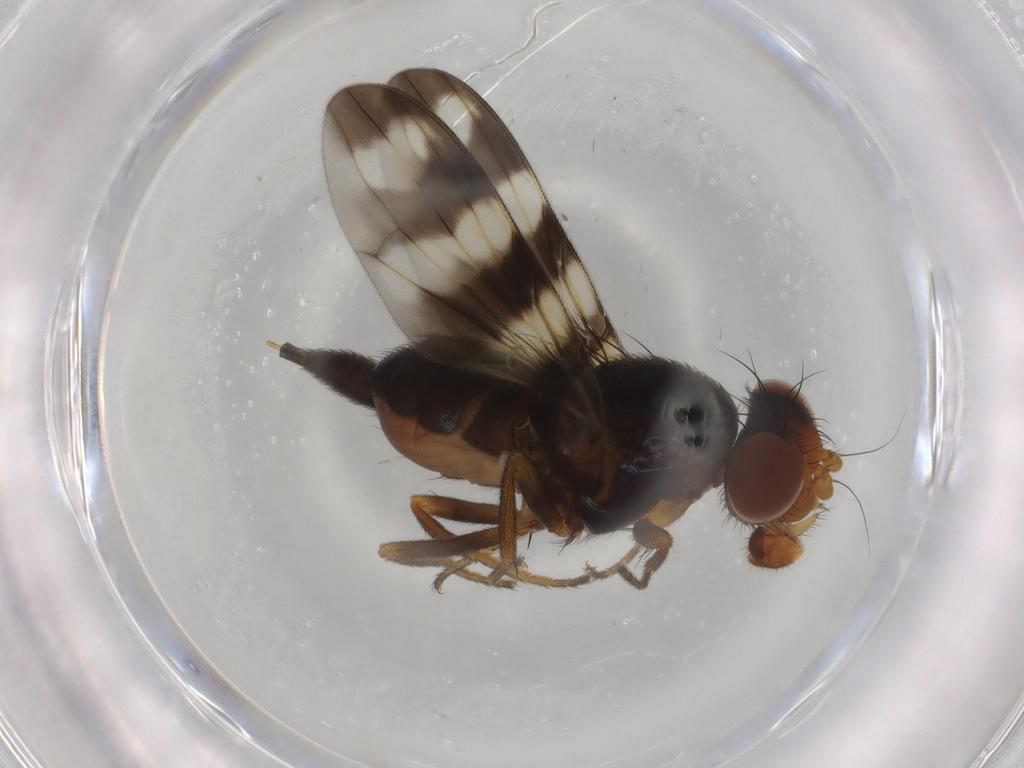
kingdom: Animalia
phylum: Arthropoda
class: Insecta
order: Diptera
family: Ulidiidae
